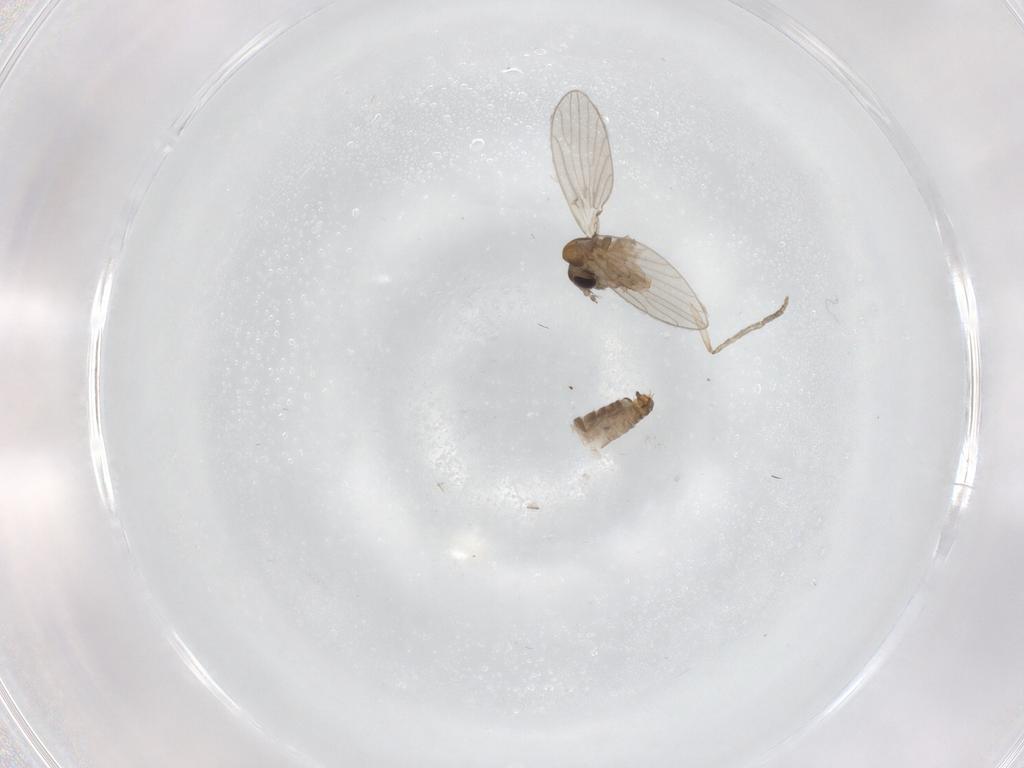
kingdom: Animalia
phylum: Arthropoda
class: Insecta
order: Diptera
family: Psychodidae
